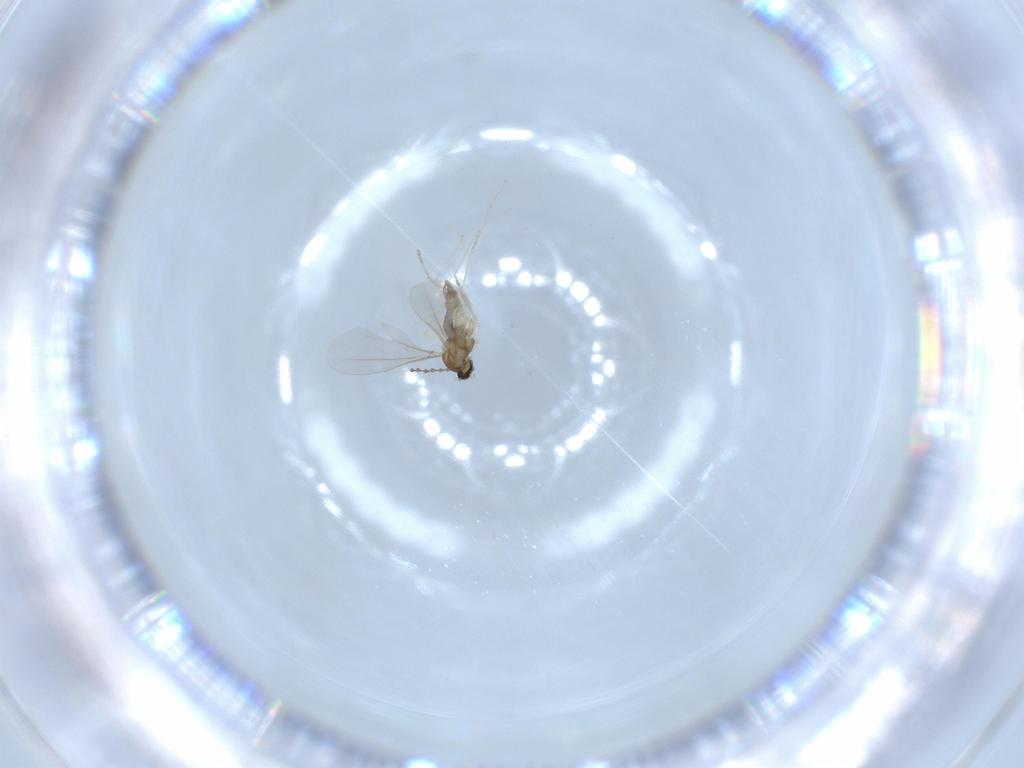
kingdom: Animalia
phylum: Arthropoda
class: Insecta
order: Diptera
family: Cecidomyiidae
